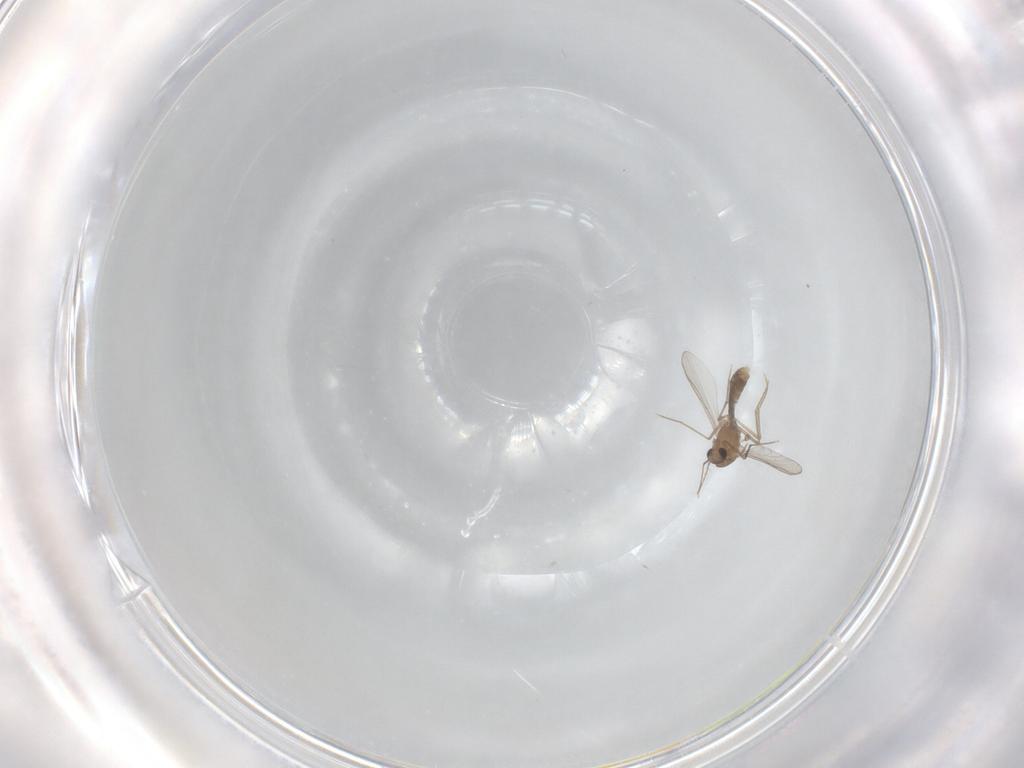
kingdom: Animalia
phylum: Arthropoda
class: Insecta
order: Diptera
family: Chironomidae
